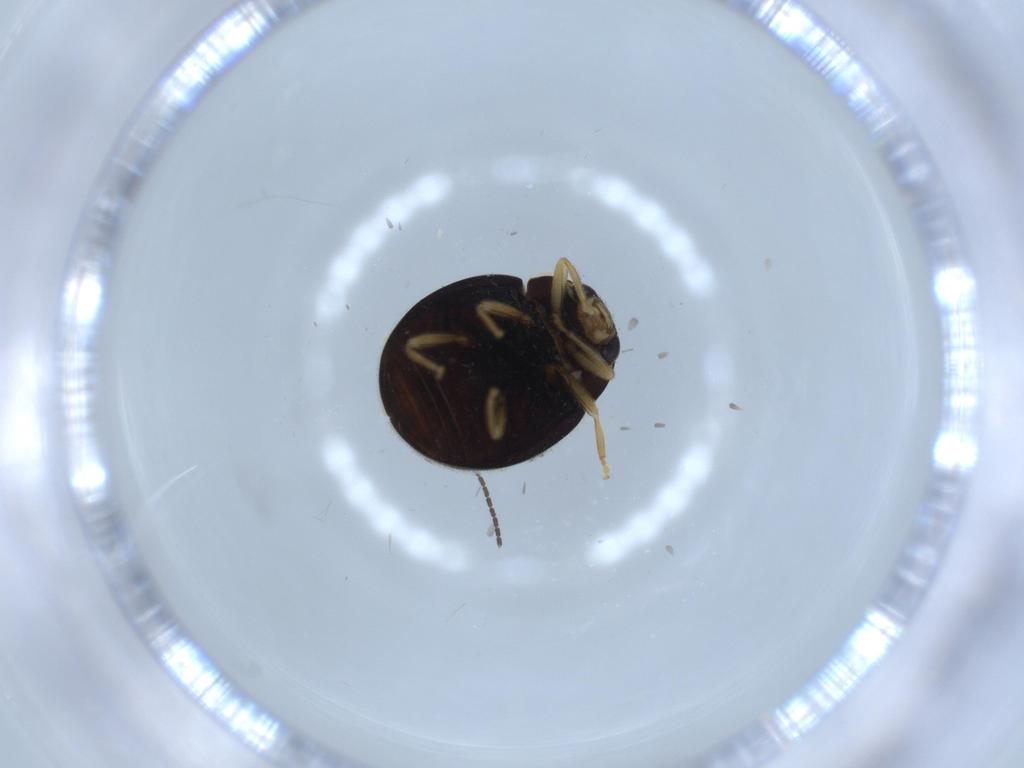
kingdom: Animalia
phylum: Arthropoda
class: Insecta
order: Coleoptera
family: Coccinellidae
